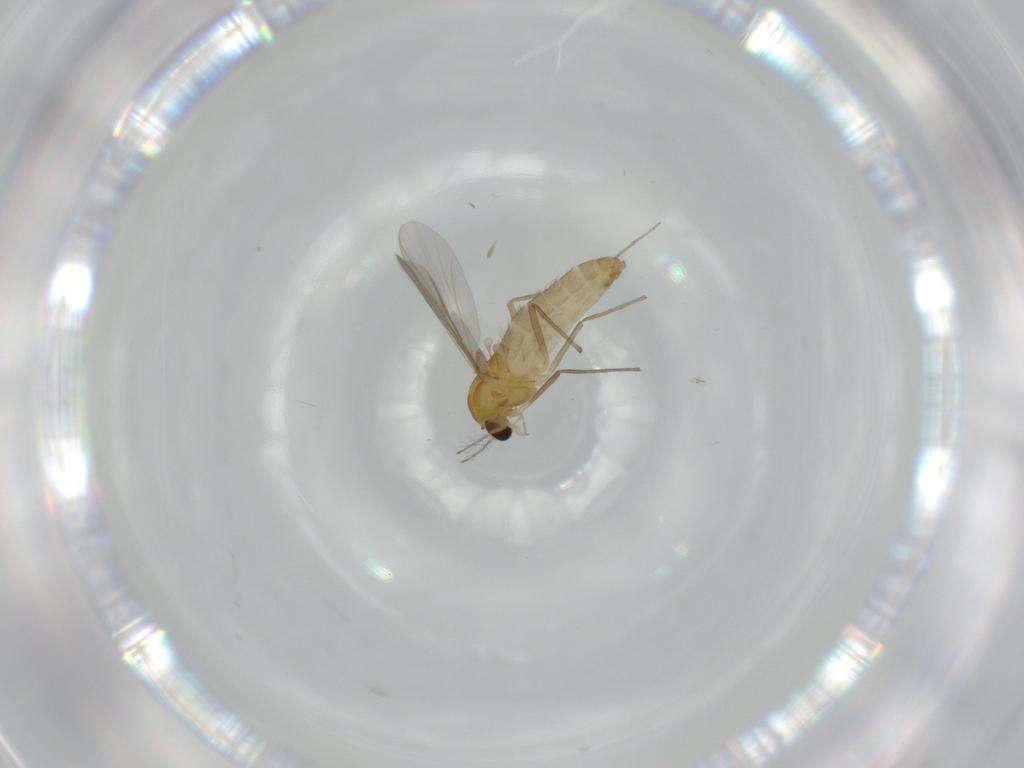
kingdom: Animalia
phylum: Arthropoda
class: Insecta
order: Diptera
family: Chironomidae
